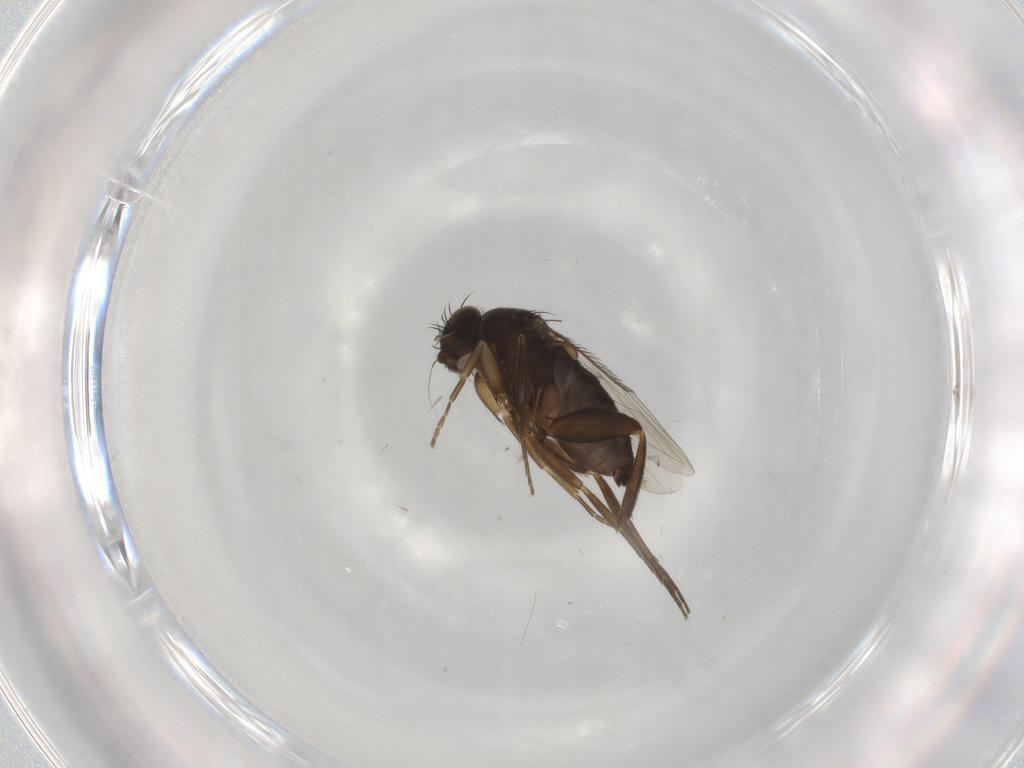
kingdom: Animalia
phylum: Arthropoda
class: Insecta
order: Diptera
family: Phoridae
